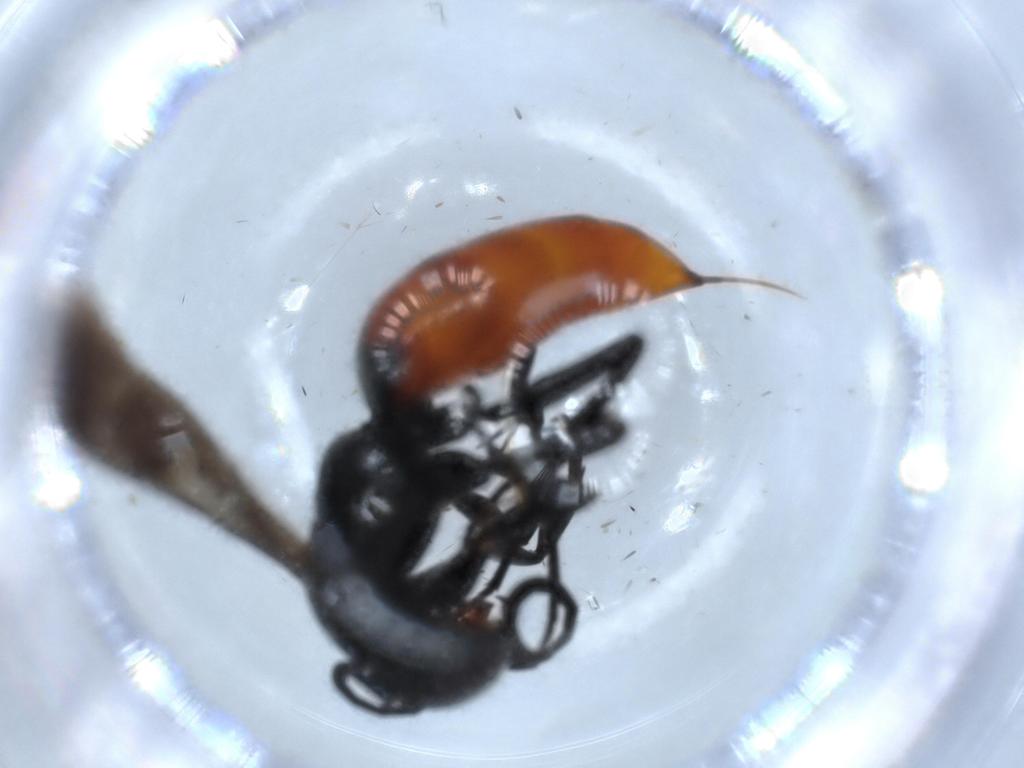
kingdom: Animalia
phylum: Arthropoda
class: Insecta
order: Hymenoptera
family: Pompilidae
